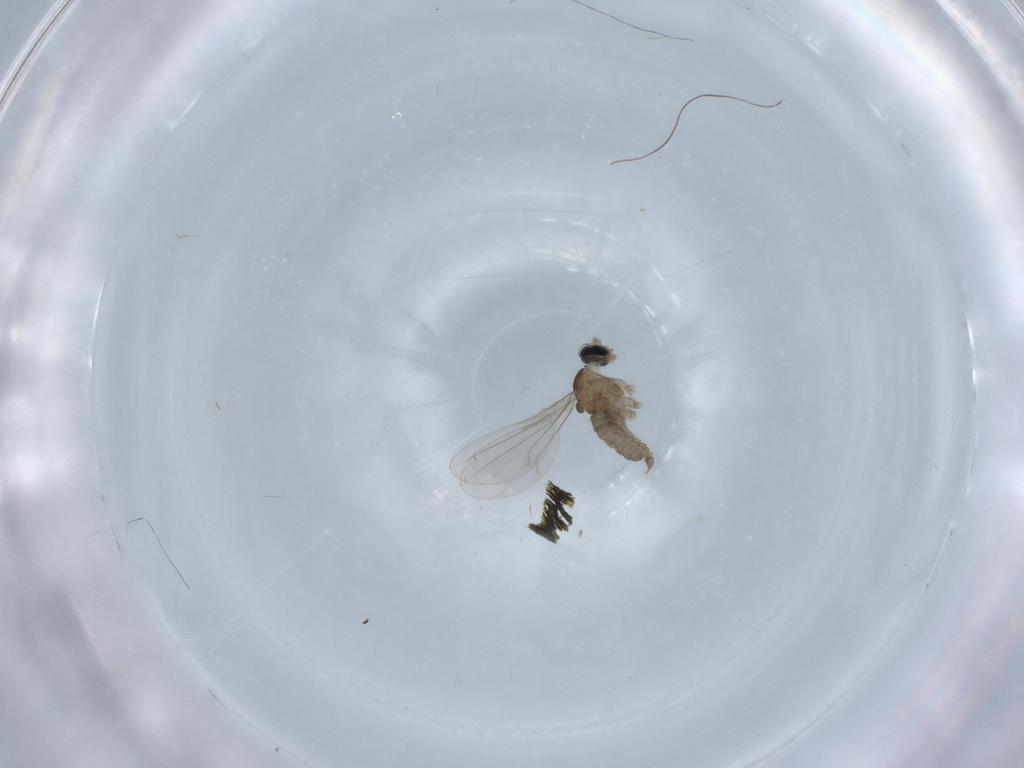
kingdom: Animalia
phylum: Arthropoda
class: Insecta
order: Diptera
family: Cecidomyiidae
